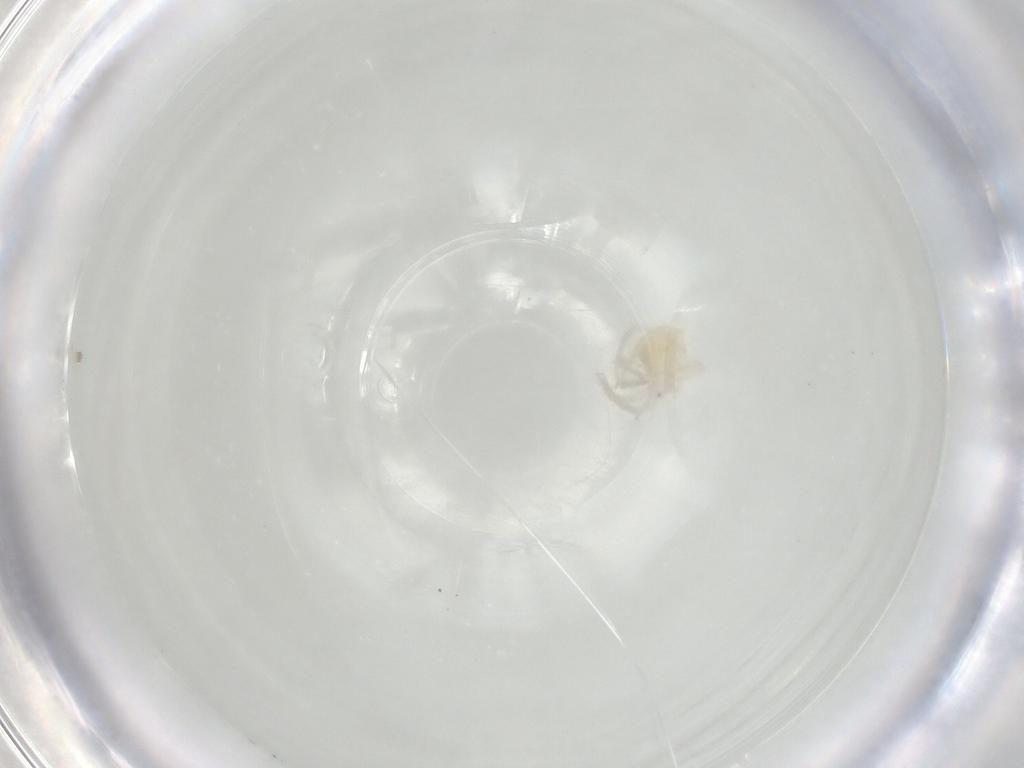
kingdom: Animalia
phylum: Arthropoda
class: Arachnida
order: Trombidiformes
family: Anystidae
